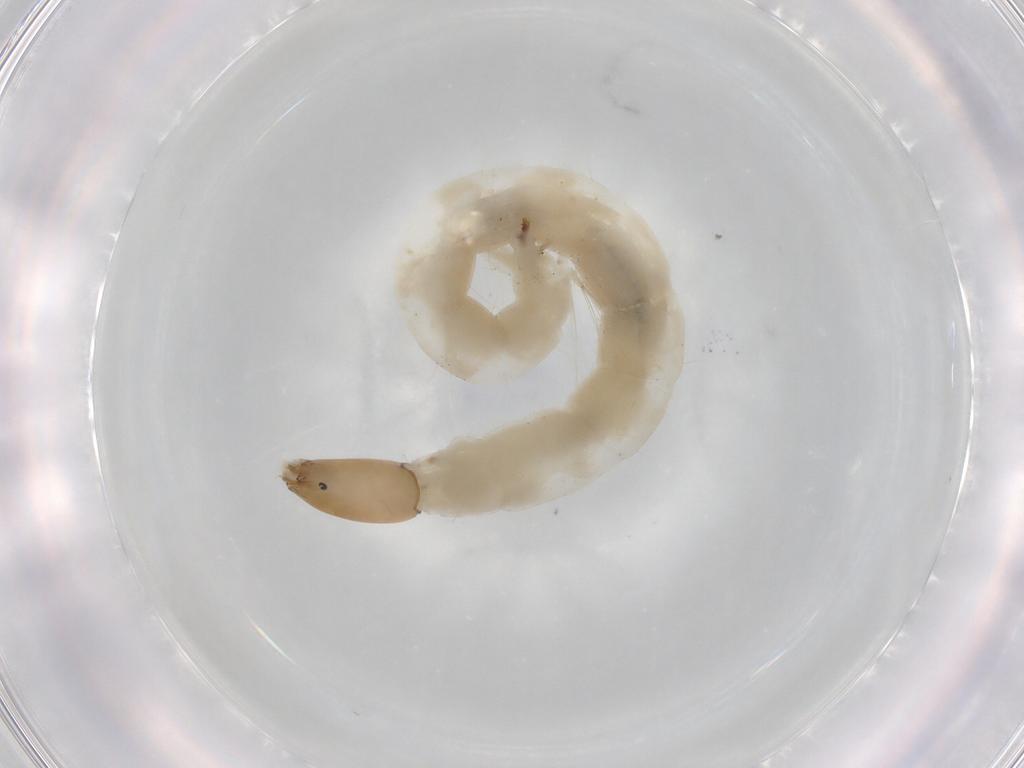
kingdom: Animalia
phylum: Arthropoda
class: Insecta
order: Diptera
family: Chironomidae
